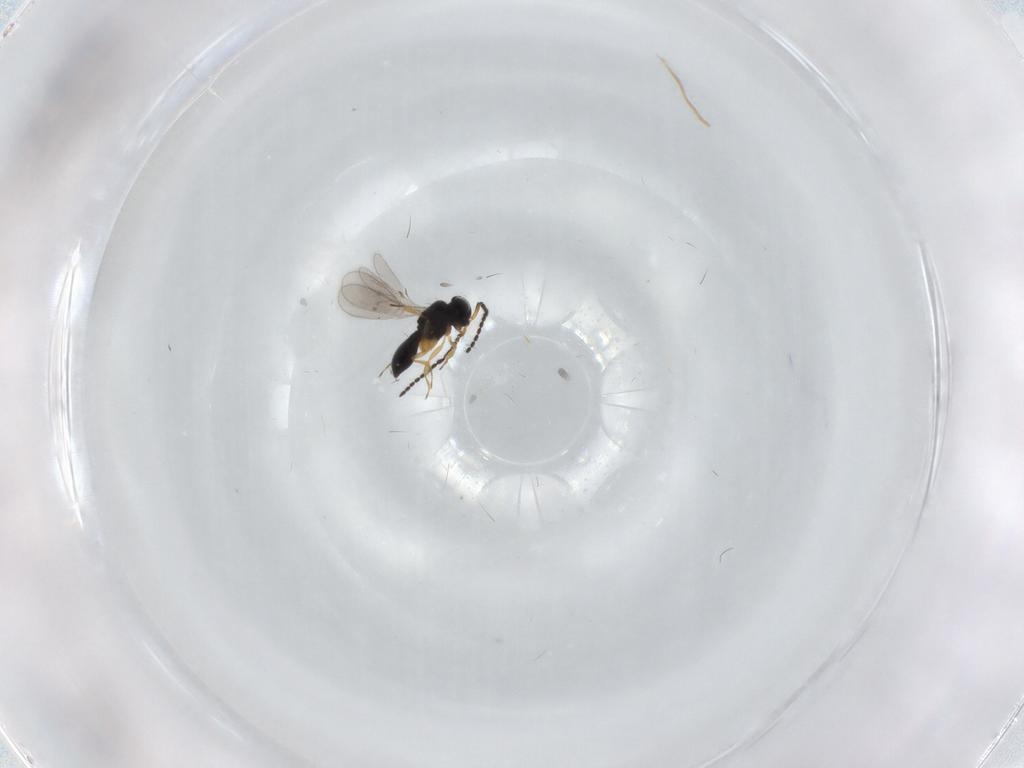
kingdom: Animalia
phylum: Arthropoda
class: Insecta
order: Hymenoptera
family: Scelionidae
